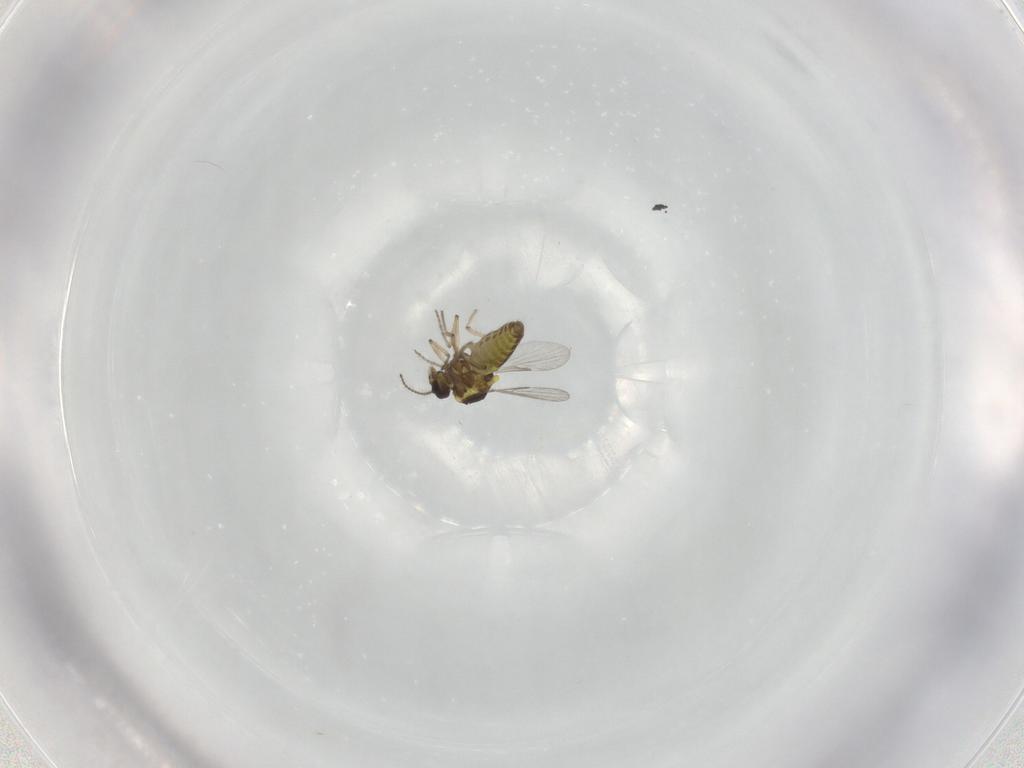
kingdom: Animalia
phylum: Arthropoda
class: Insecta
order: Diptera
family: Ceratopogonidae
